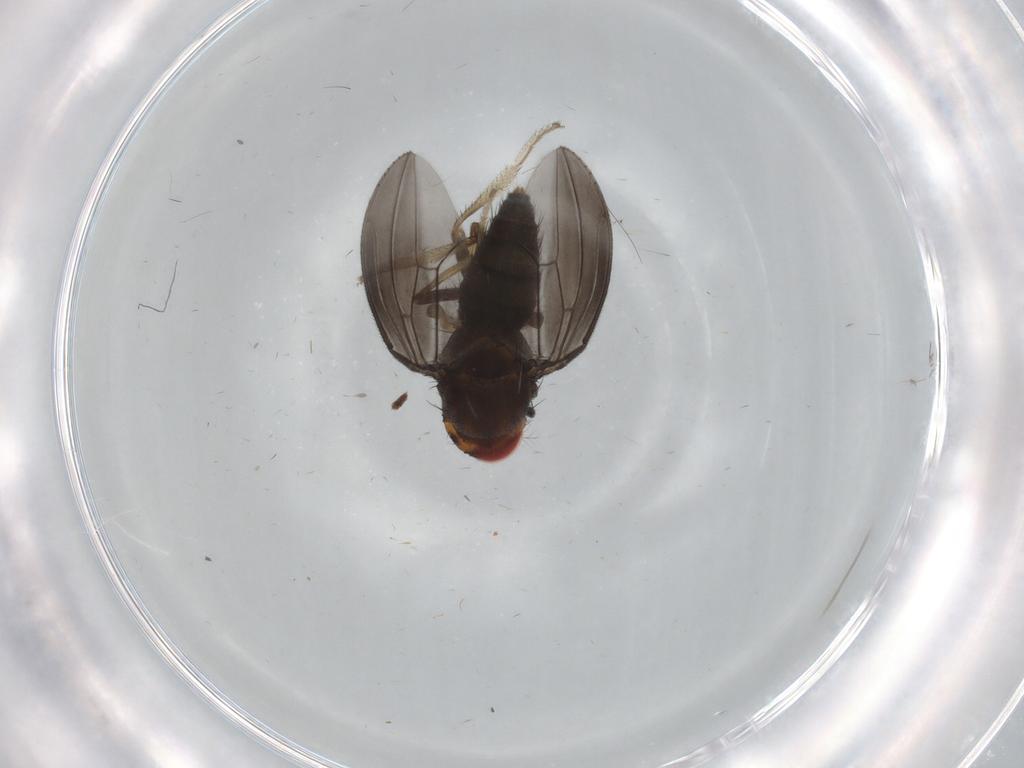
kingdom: Animalia
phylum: Arthropoda
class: Insecta
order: Diptera
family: Drosophilidae
